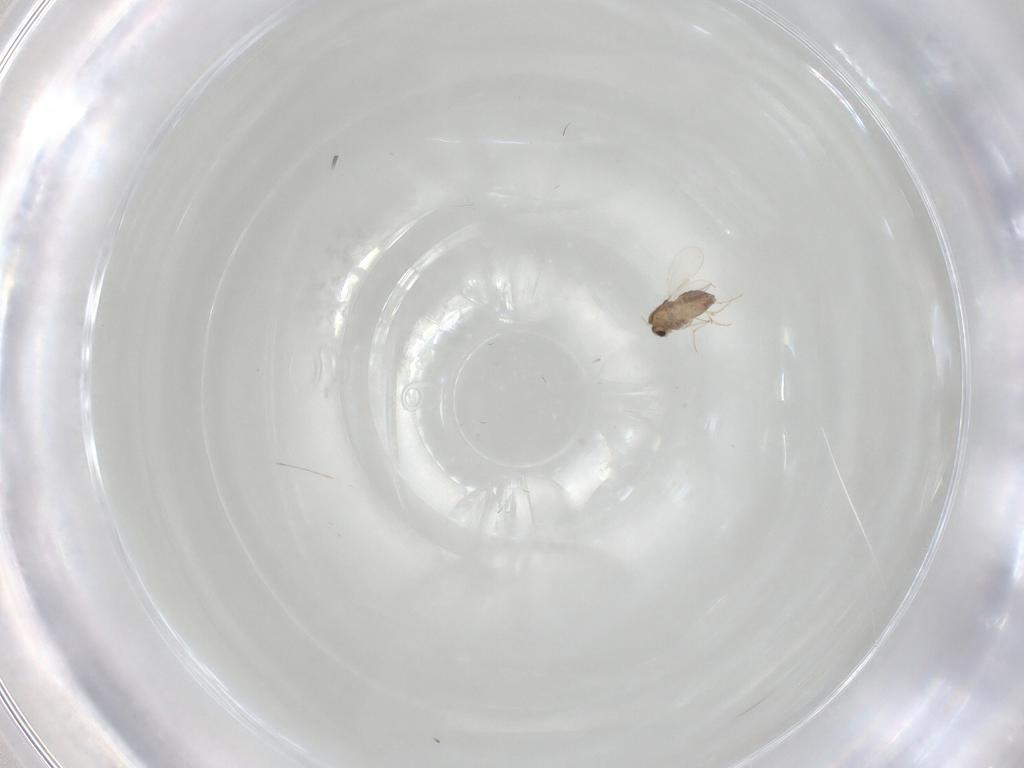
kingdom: Animalia
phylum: Arthropoda
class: Insecta
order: Diptera
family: Chironomidae
